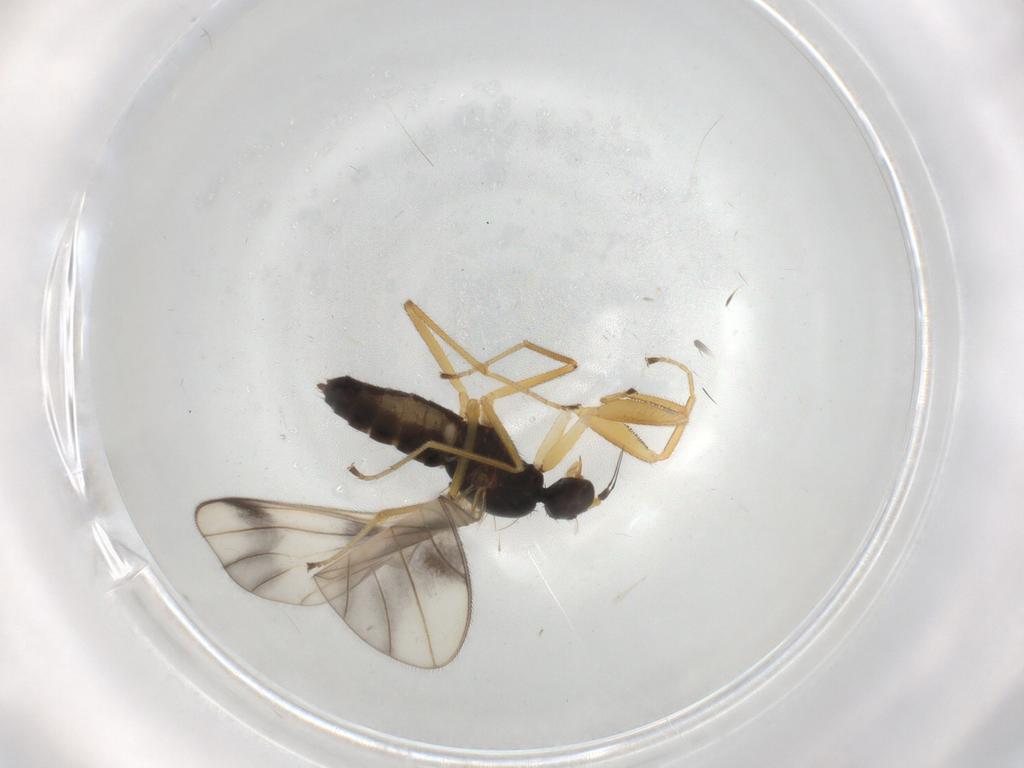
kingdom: Animalia
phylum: Arthropoda
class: Insecta
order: Diptera
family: Empididae
